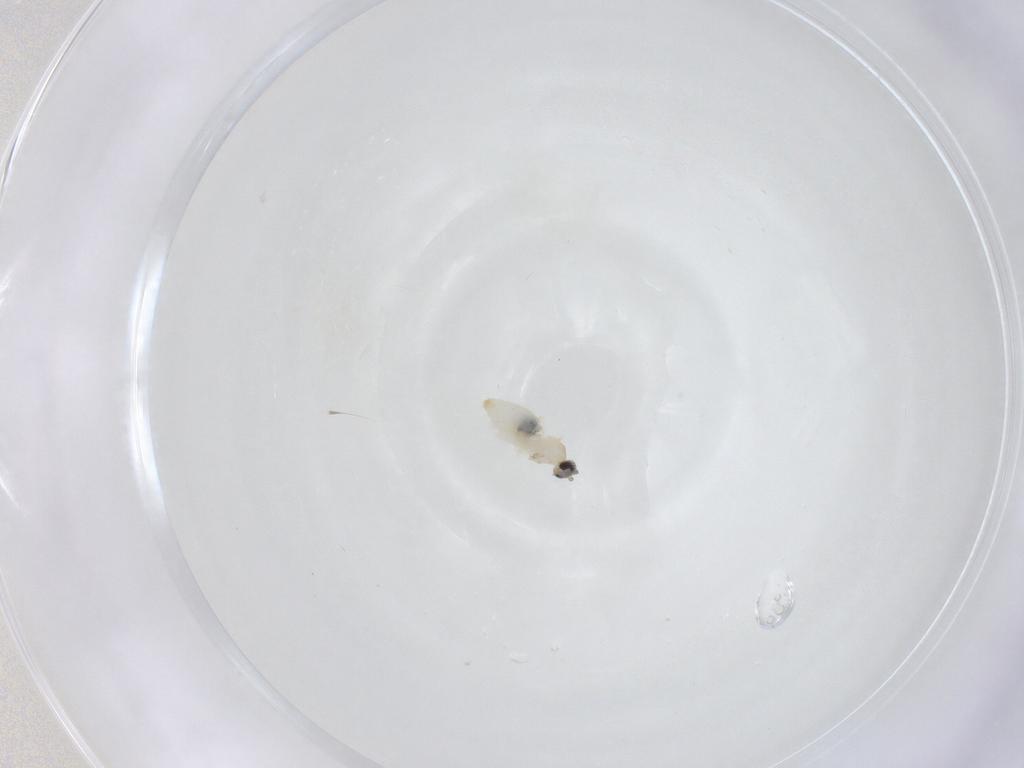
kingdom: Animalia
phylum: Arthropoda
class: Insecta
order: Diptera
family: Cecidomyiidae
